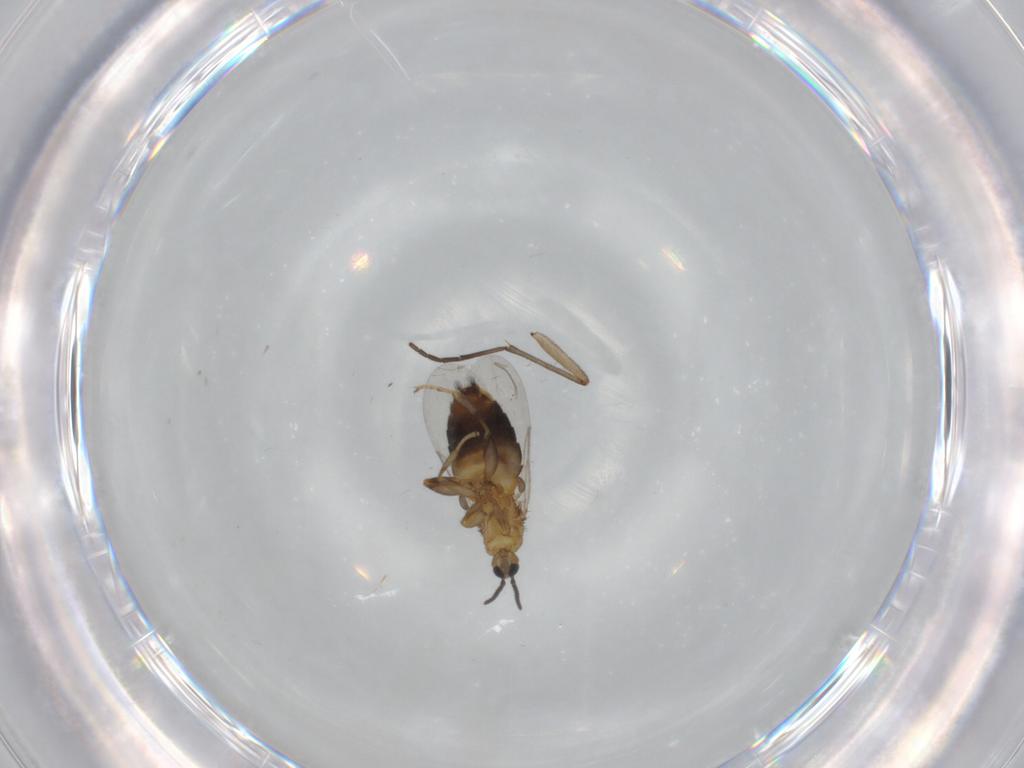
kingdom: Animalia
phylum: Arthropoda
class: Insecta
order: Diptera
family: Scatopsidae
